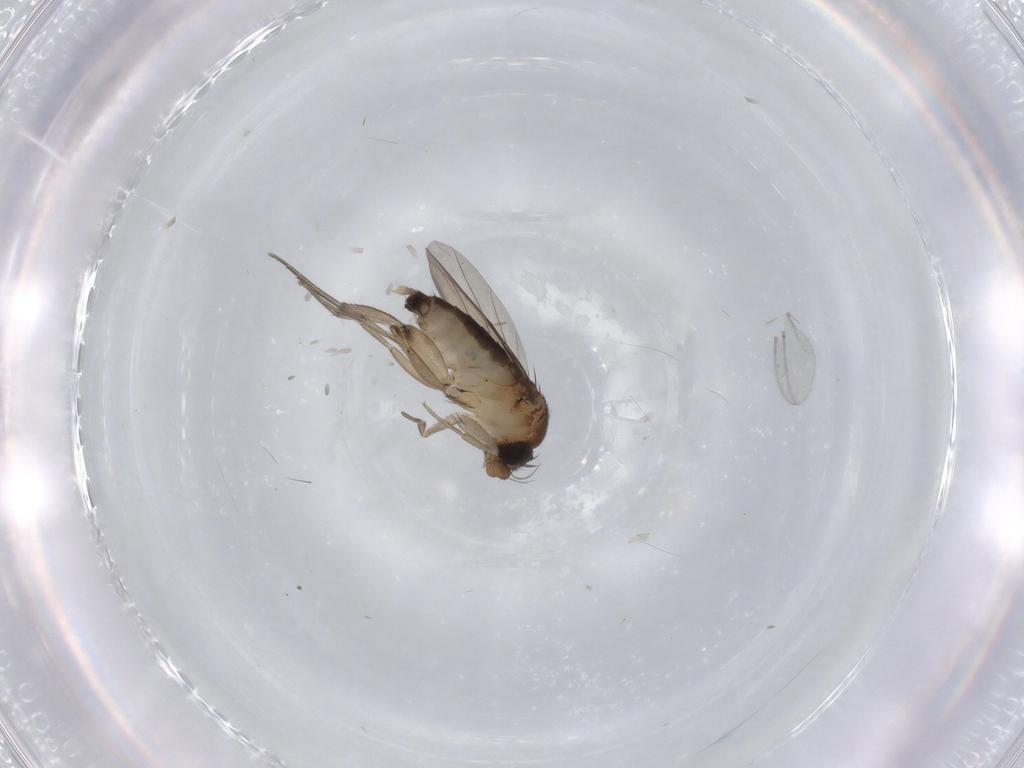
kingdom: Animalia
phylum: Arthropoda
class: Insecta
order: Diptera
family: Phoridae
